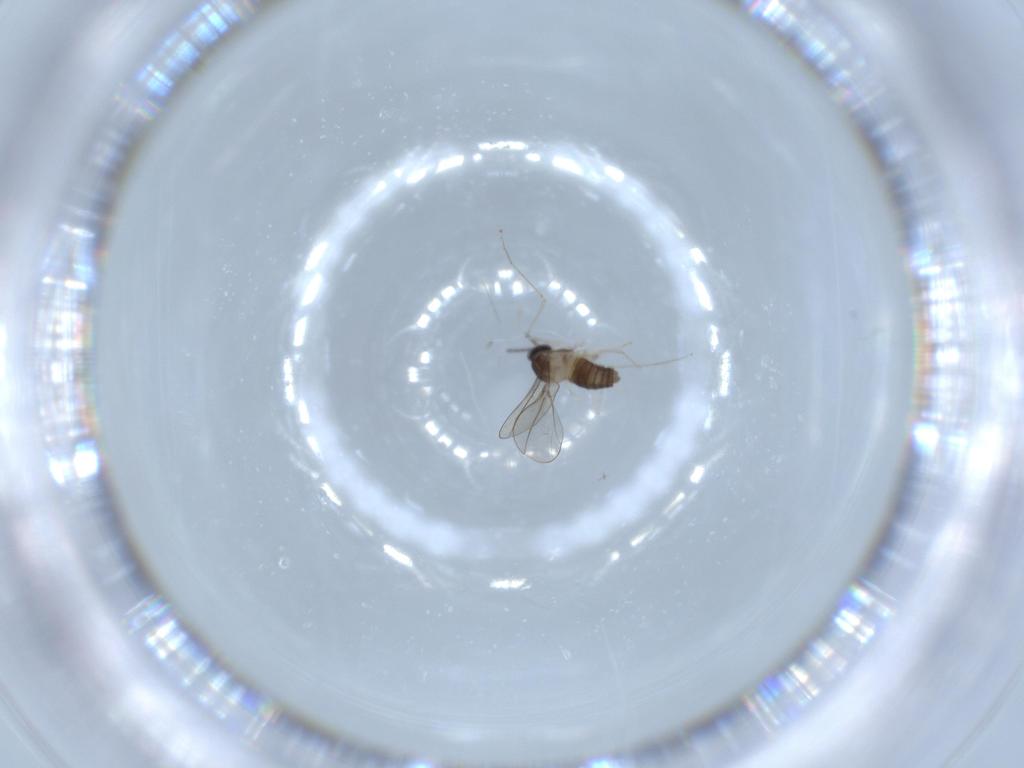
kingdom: Animalia
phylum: Arthropoda
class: Insecta
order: Diptera
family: Cecidomyiidae
